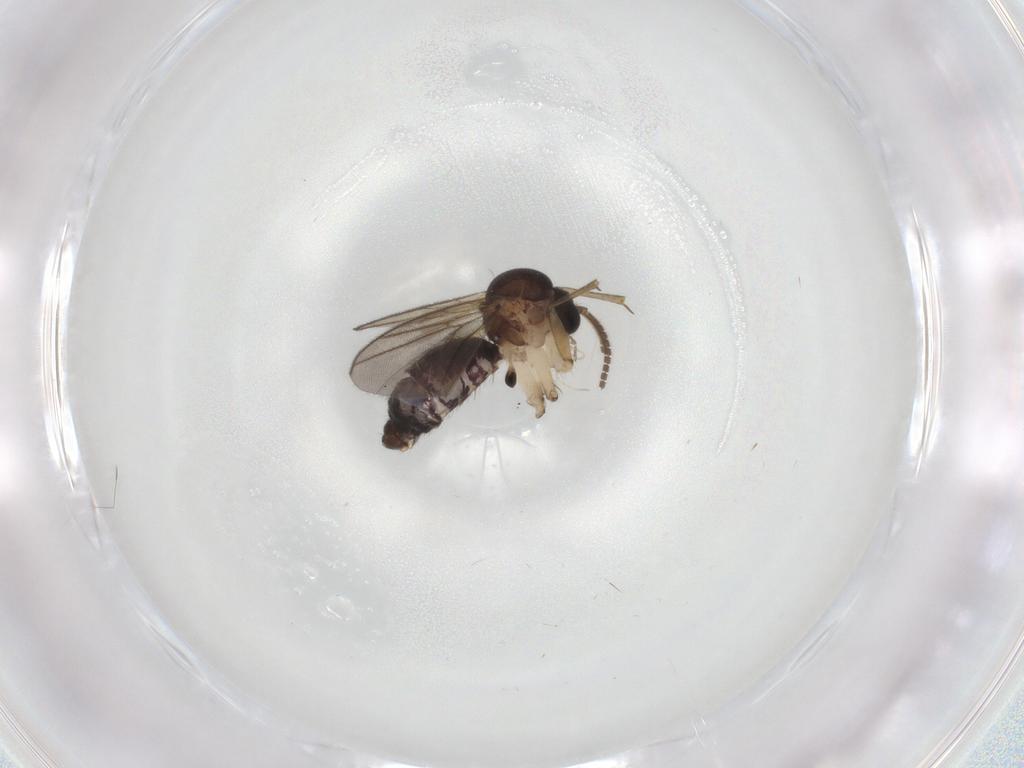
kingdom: Animalia
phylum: Arthropoda
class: Insecta
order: Diptera
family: Mycetophilidae
